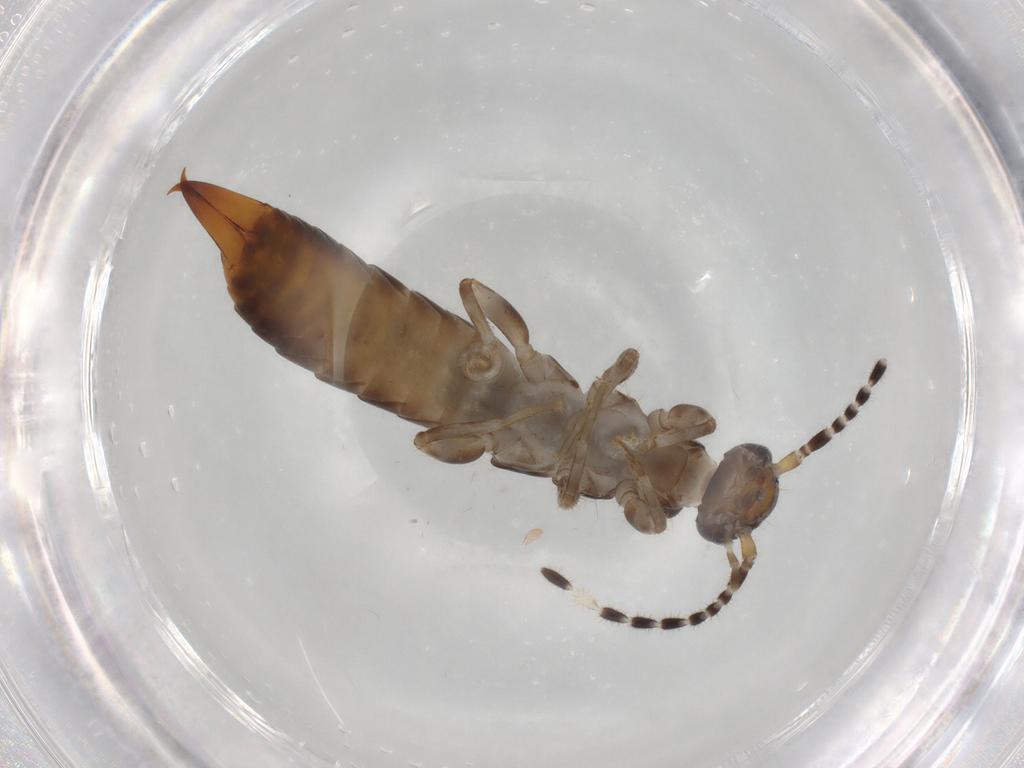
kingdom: Animalia
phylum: Arthropoda
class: Insecta
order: Dermaptera
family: Anisolabididae
